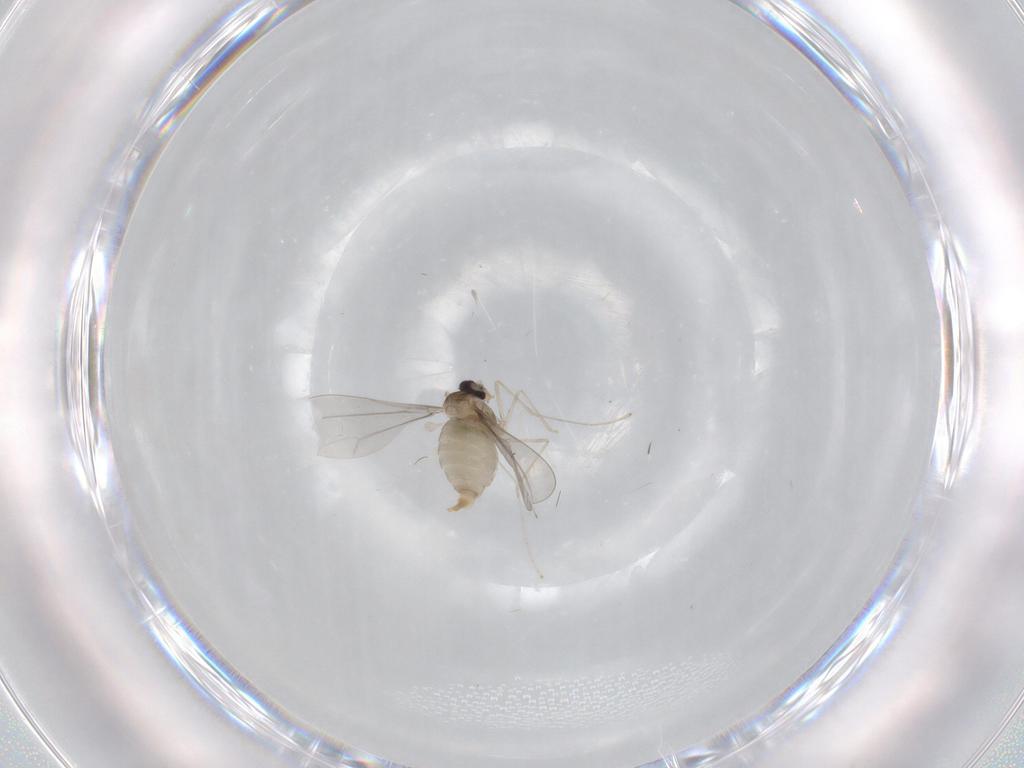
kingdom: Animalia
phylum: Arthropoda
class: Insecta
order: Diptera
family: Cecidomyiidae
